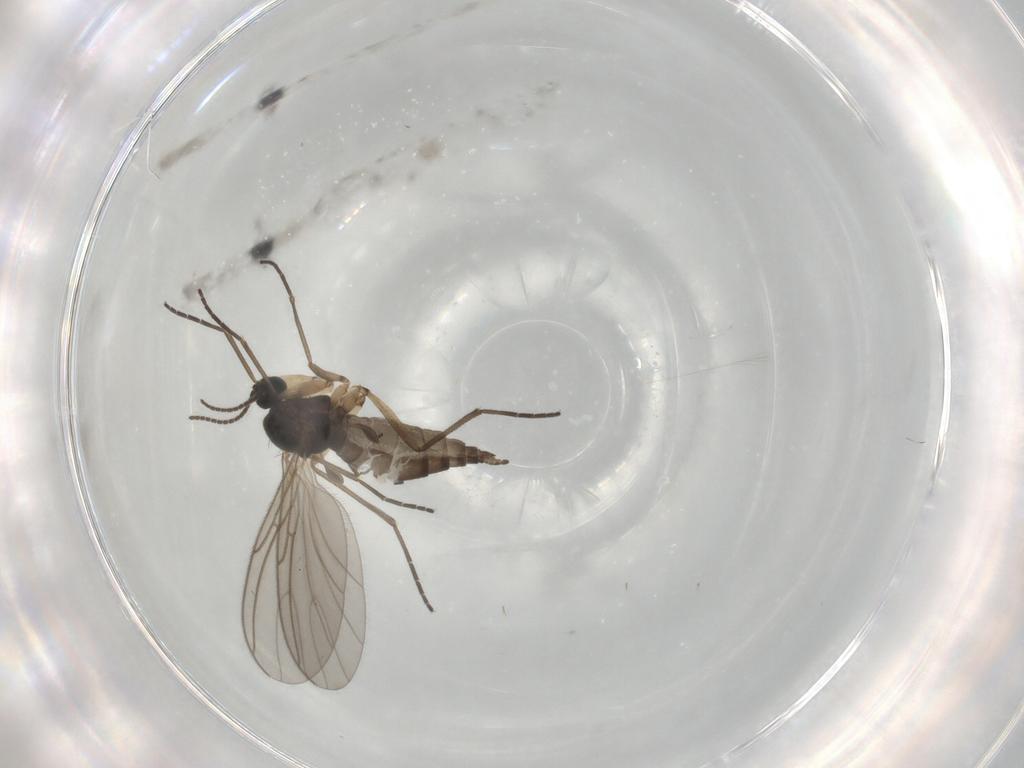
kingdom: Animalia
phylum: Arthropoda
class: Insecta
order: Diptera
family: Sciaridae
